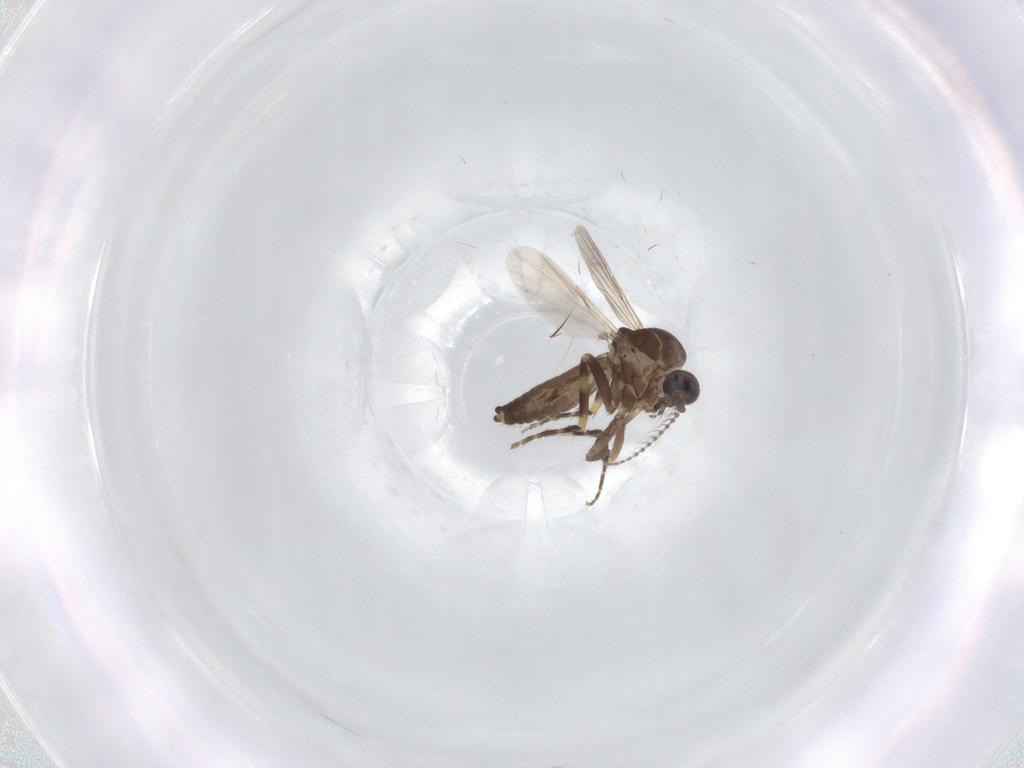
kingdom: Animalia
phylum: Arthropoda
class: Insecta
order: Diptera
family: Ceratopogonidae
